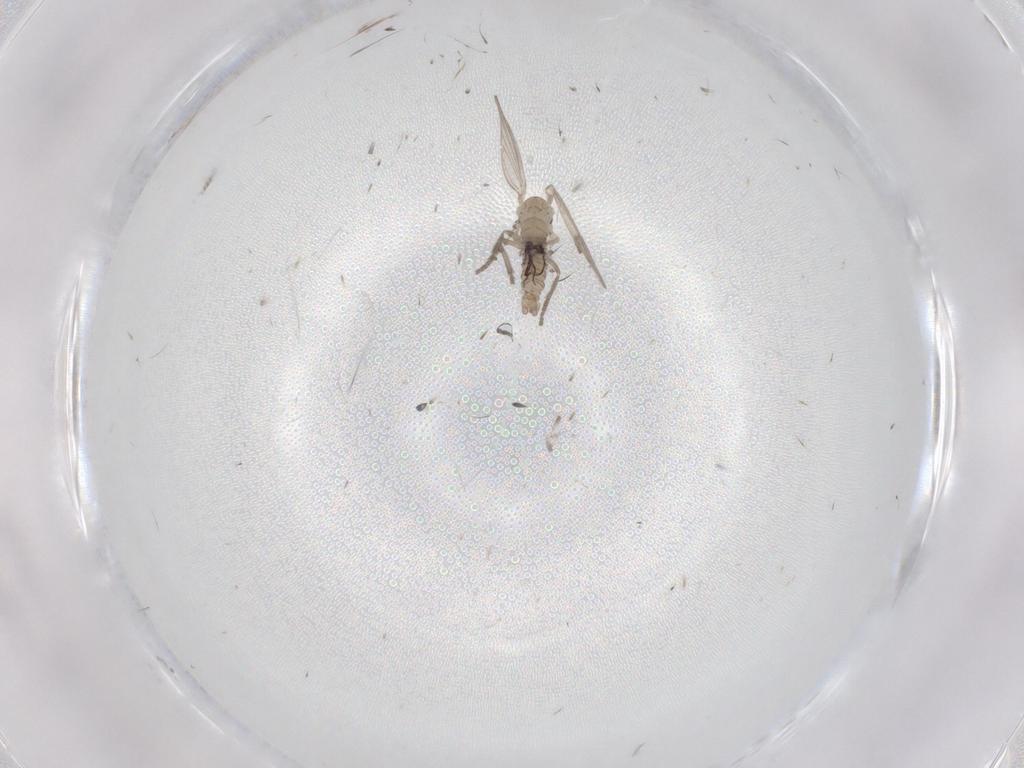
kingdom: Animalia
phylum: Arthropoda
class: Insecta
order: Diptera
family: Psychodidae
